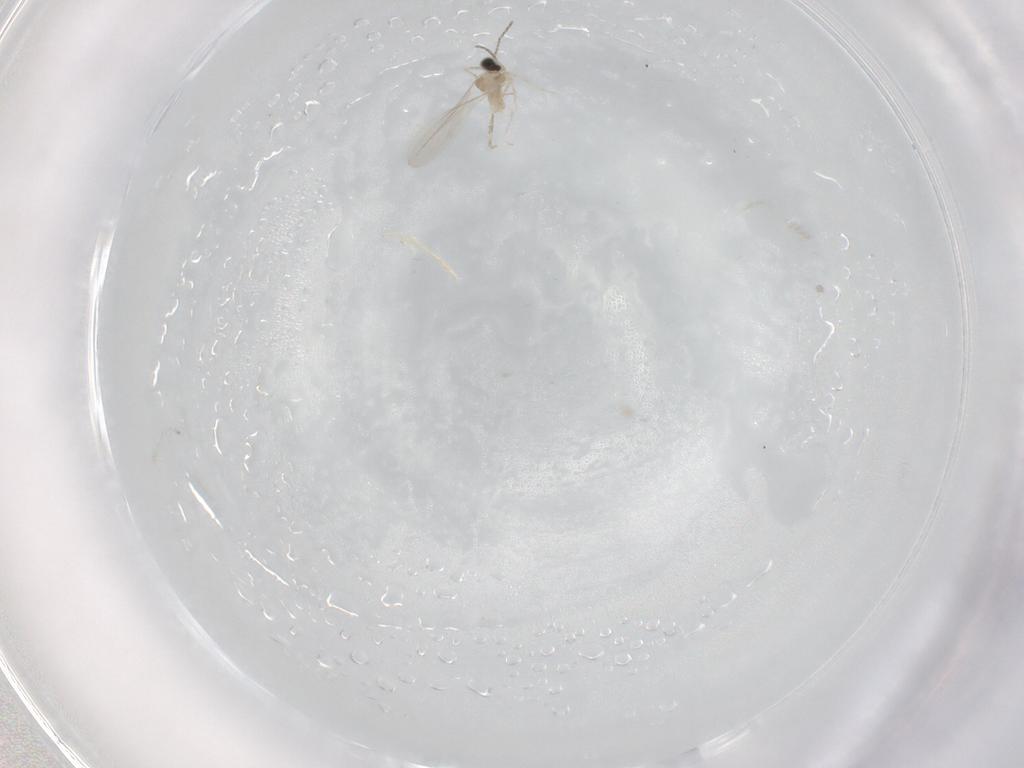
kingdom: Animalia
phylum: Arthropoda
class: Insecta
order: Diptera
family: Cecidomyiidae
